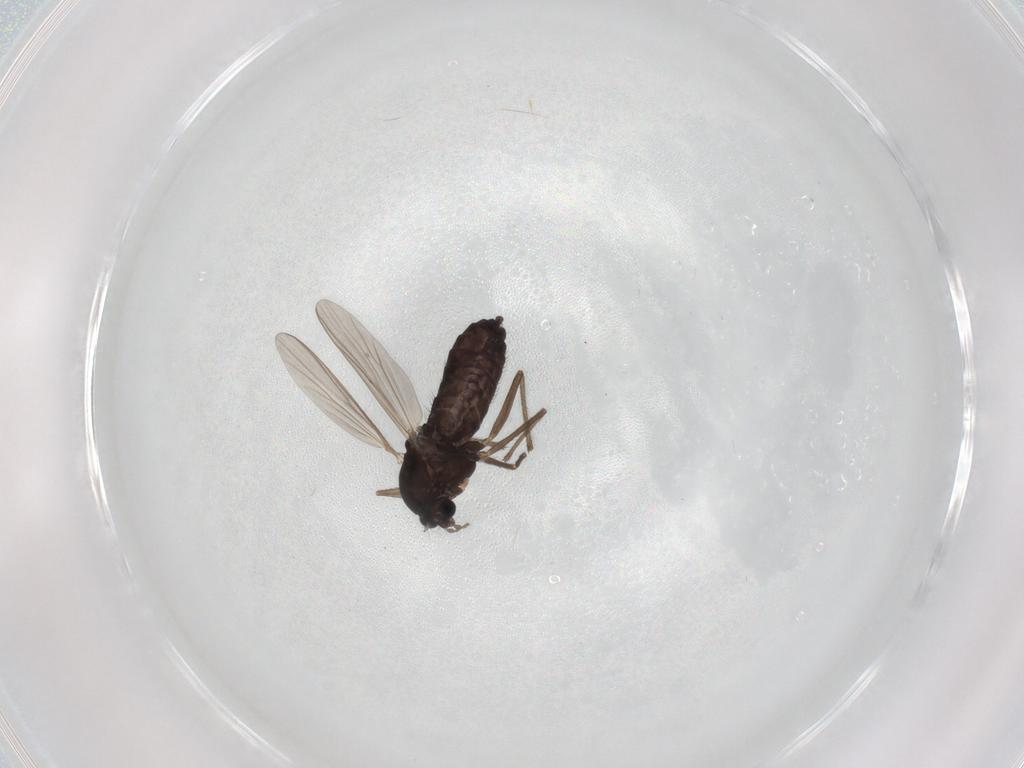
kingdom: Animalia
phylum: Arthropoda
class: Insecta
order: Diptera
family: Chironomidae
